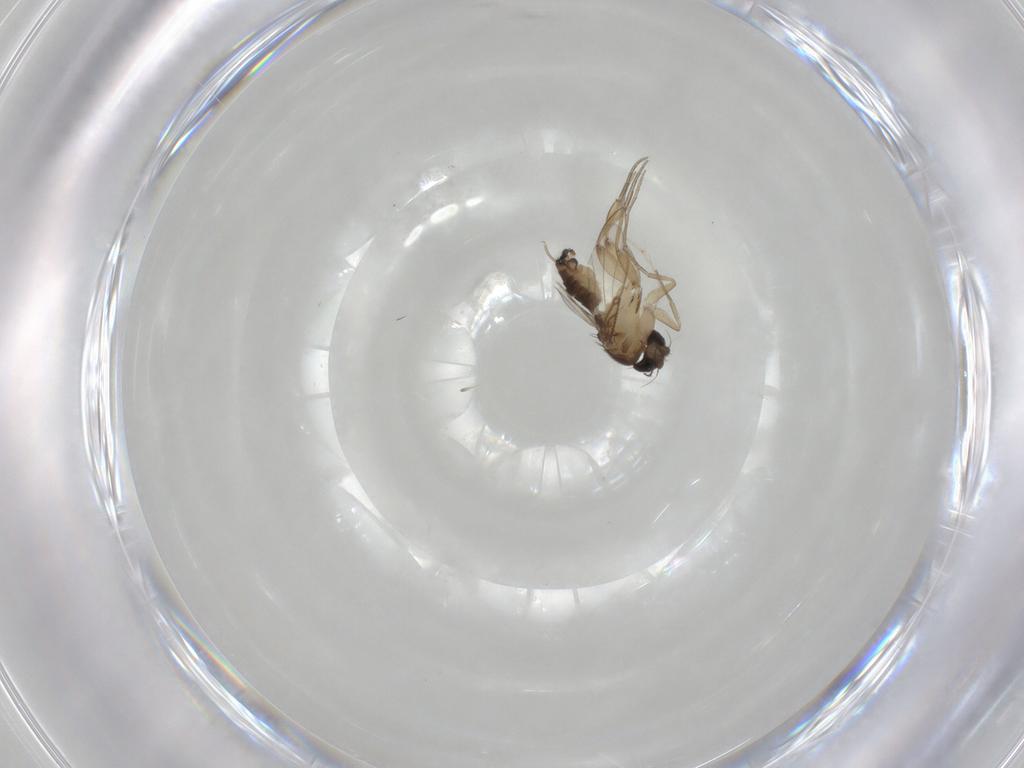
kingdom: Animalia
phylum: Arthropoda
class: Insecta
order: Diptera
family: Phoridae
